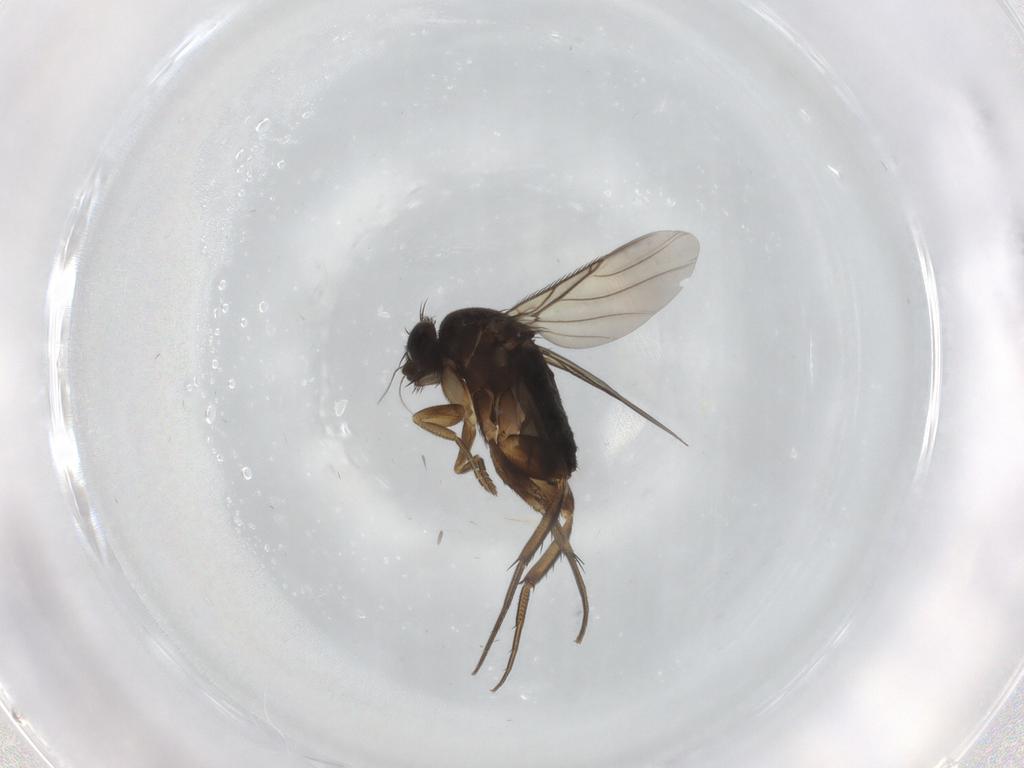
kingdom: Animalia
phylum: Arthropoda
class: Insecta
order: Diptera
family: Phoridae
